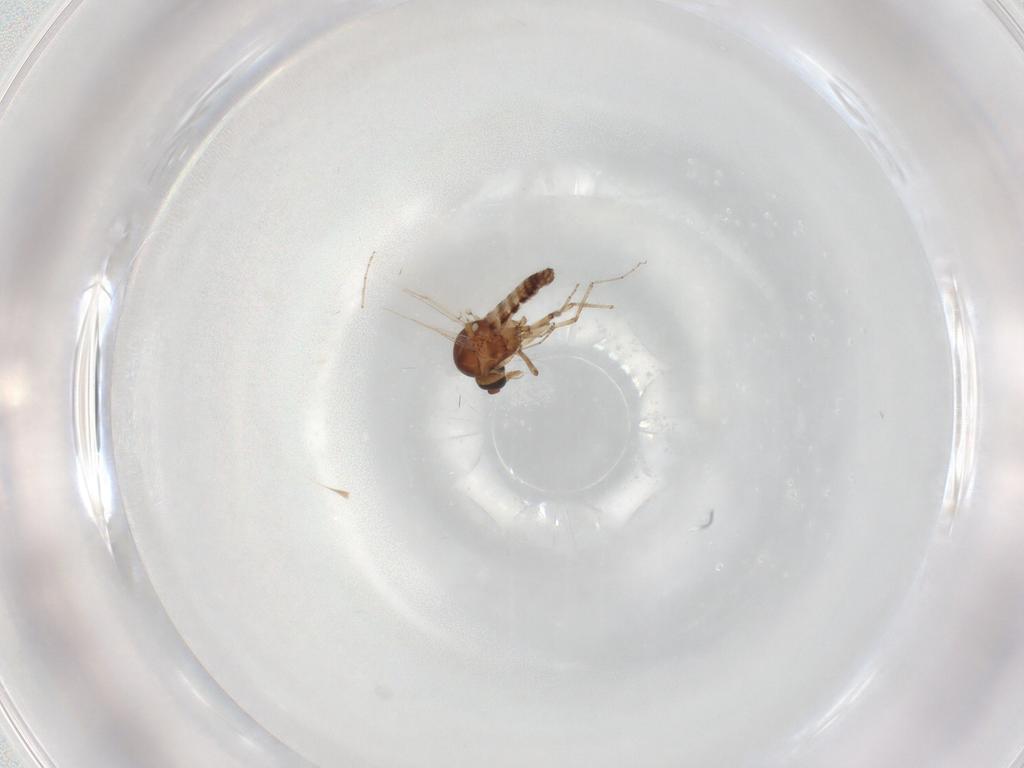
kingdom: Animalia
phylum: Arthropoda
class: Insecta
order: Diptera
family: Ceratopogonidae
